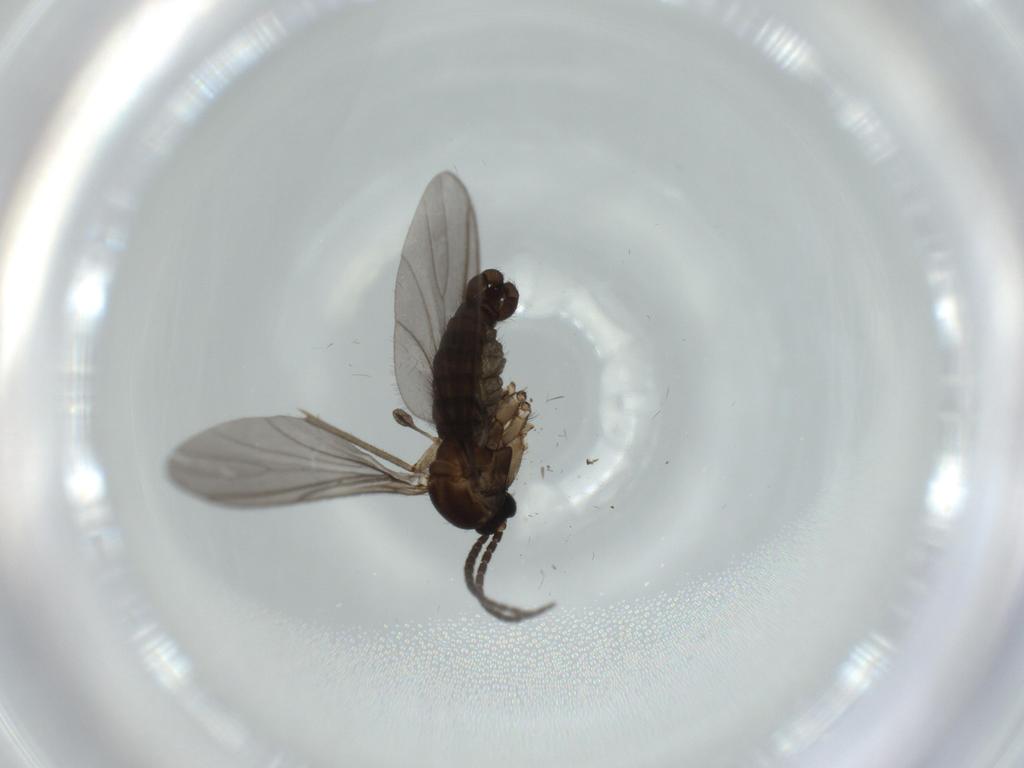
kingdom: Animalia
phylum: Arthropoda
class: Insecta
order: Diptera
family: Sciaridae
